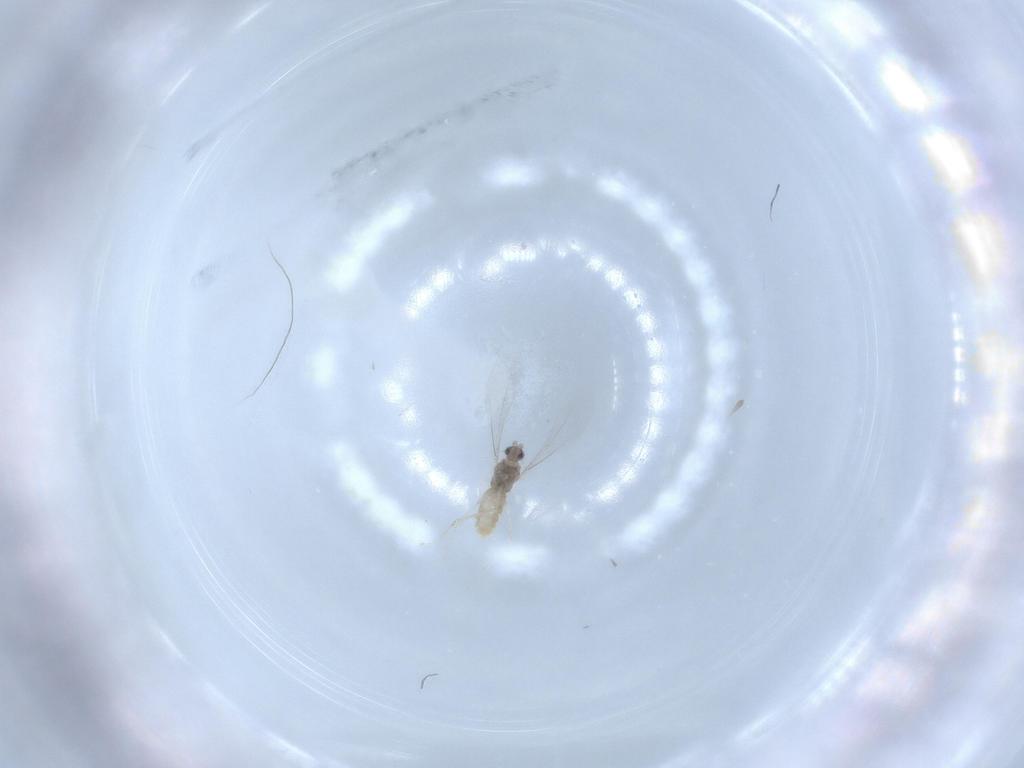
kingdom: Animalia
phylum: Arthropoda
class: Insecta
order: Diptera
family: Cecidomyiidae
